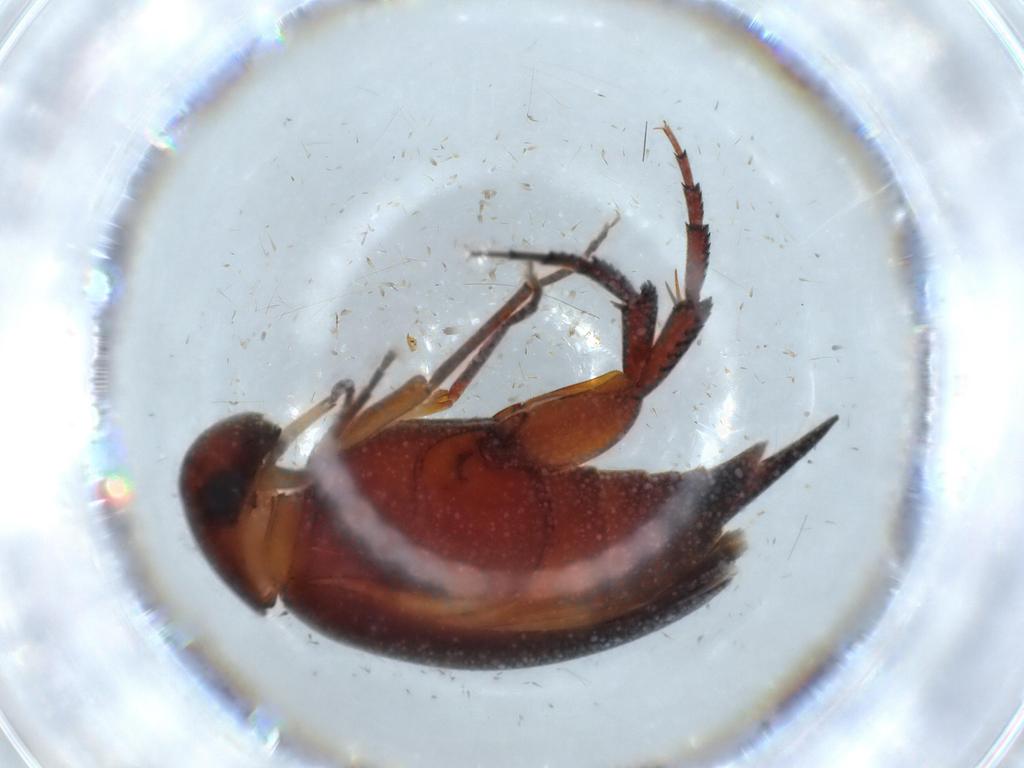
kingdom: Animalia
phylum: Arthropoda
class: Insecta
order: Coleoptera
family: Mordellidae
